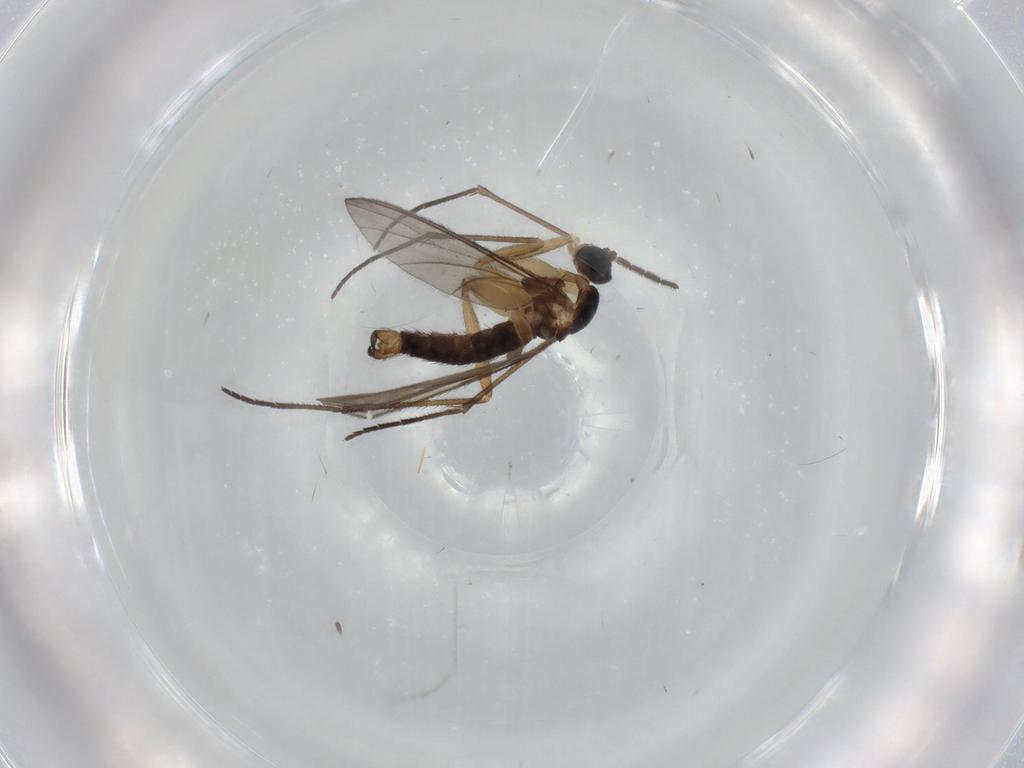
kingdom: Animalia
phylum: Arthropoda
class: Insecta
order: Diptera
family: Sciaridae
